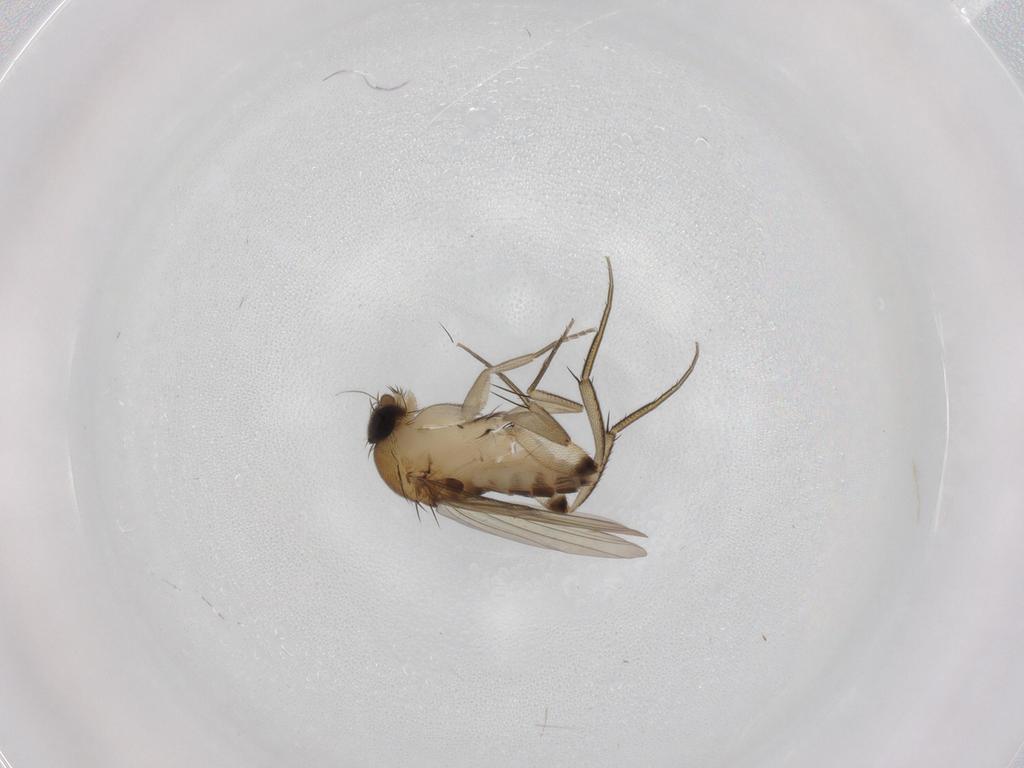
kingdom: Animalia
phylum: Arthropoda
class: Insecta
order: Diptera
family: Phoridae
